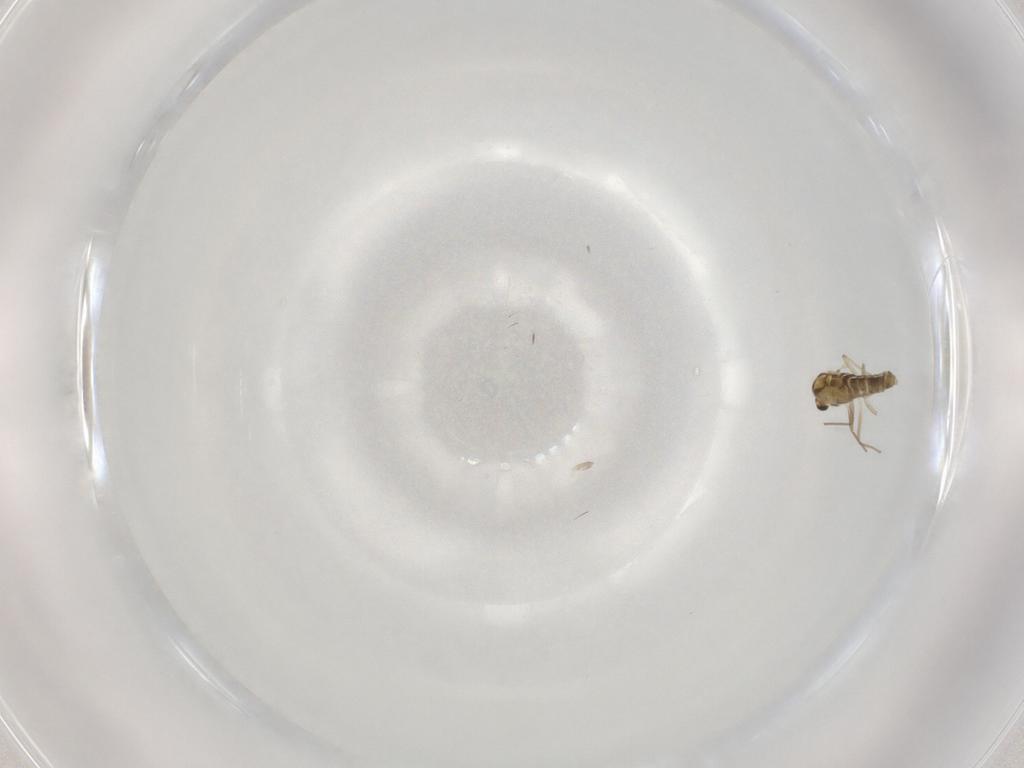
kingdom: Animalia
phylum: Arthropoda
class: Insecta
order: Diptera
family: Chironomidae
